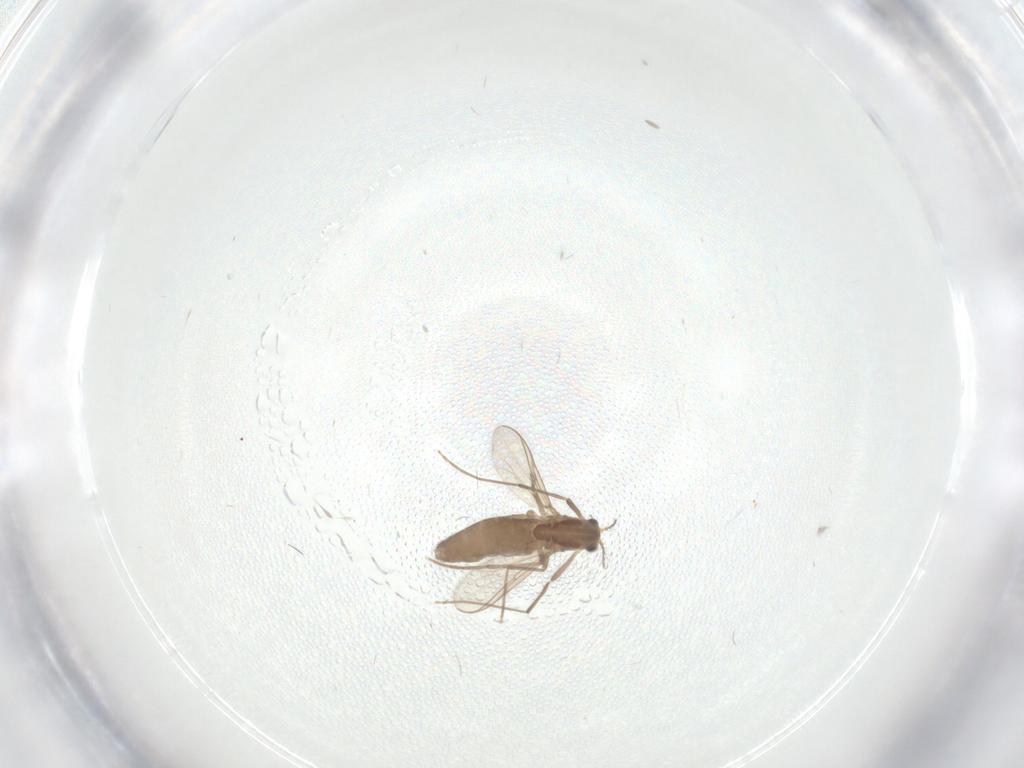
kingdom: Animalia
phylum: Arthropoda
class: Insecta
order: Diptera
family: Chironomidae
